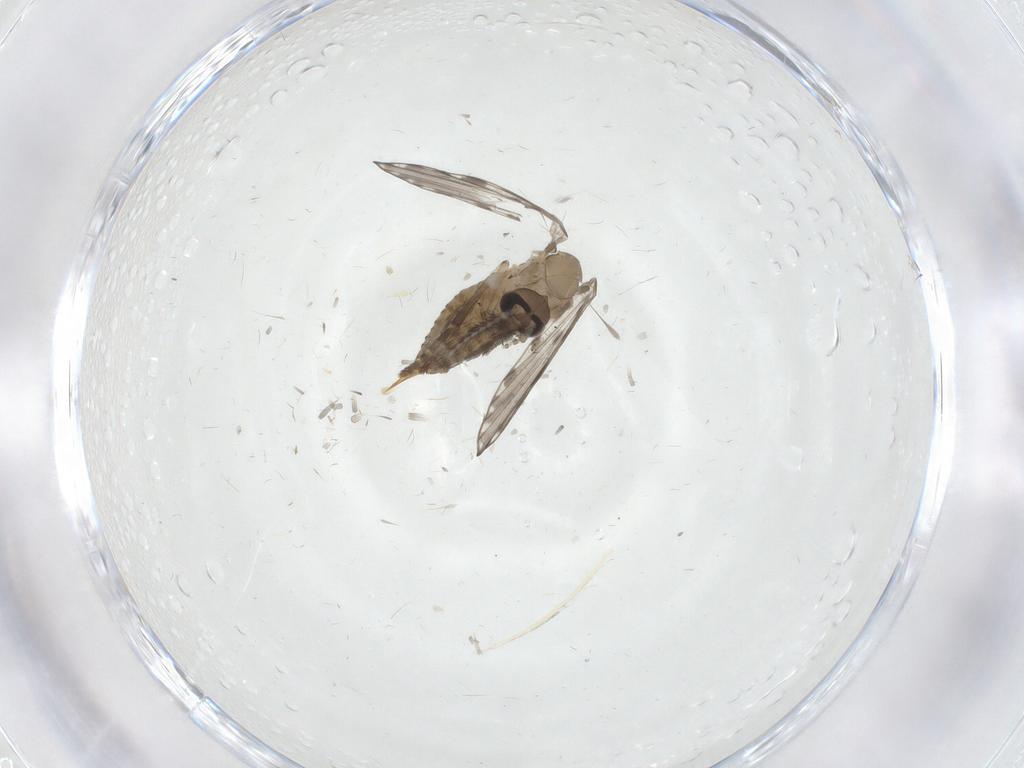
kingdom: Animalia
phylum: Arthropoda
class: Insecta
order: Diptera
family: Psychodidae
